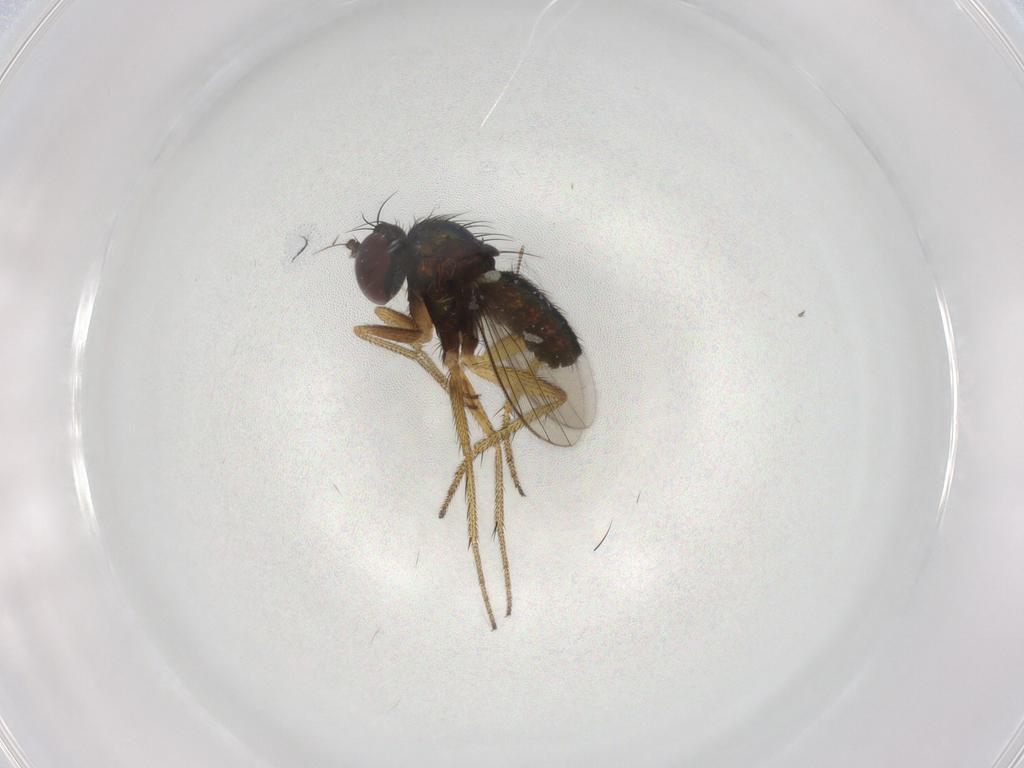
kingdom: Animalia
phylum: Arthropoda
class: Insecta
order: Diptera
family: Chironomidae
